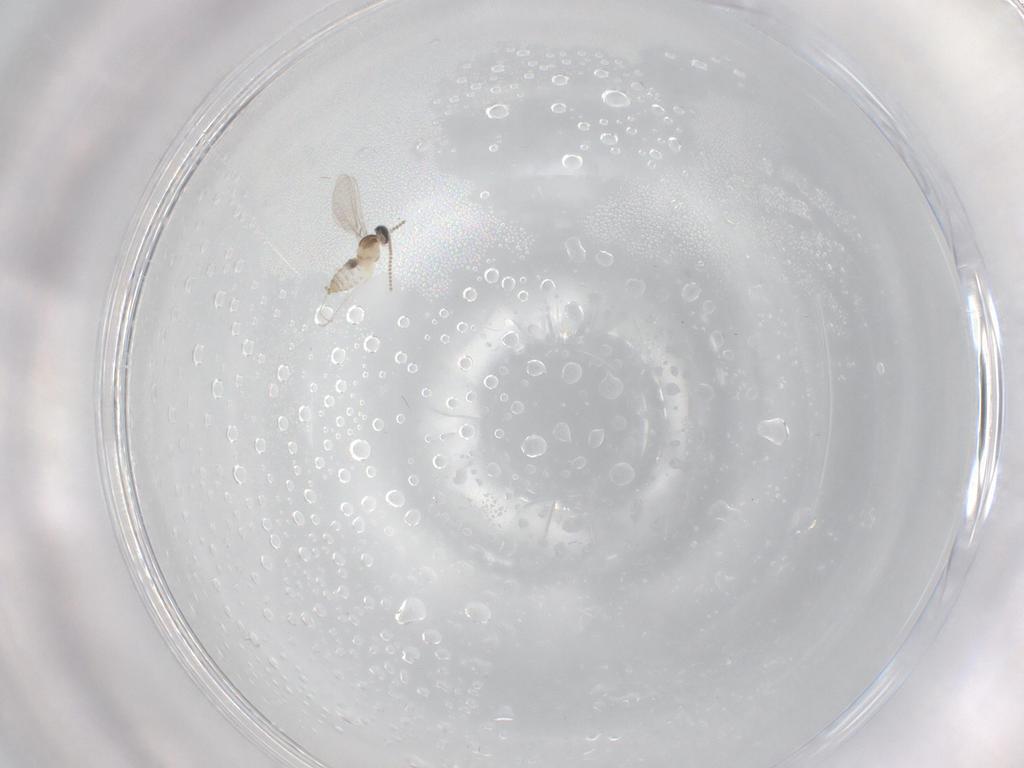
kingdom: Animalia
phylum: Arthropoda
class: Insecta
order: Diptera
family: Cecidomyiidae
